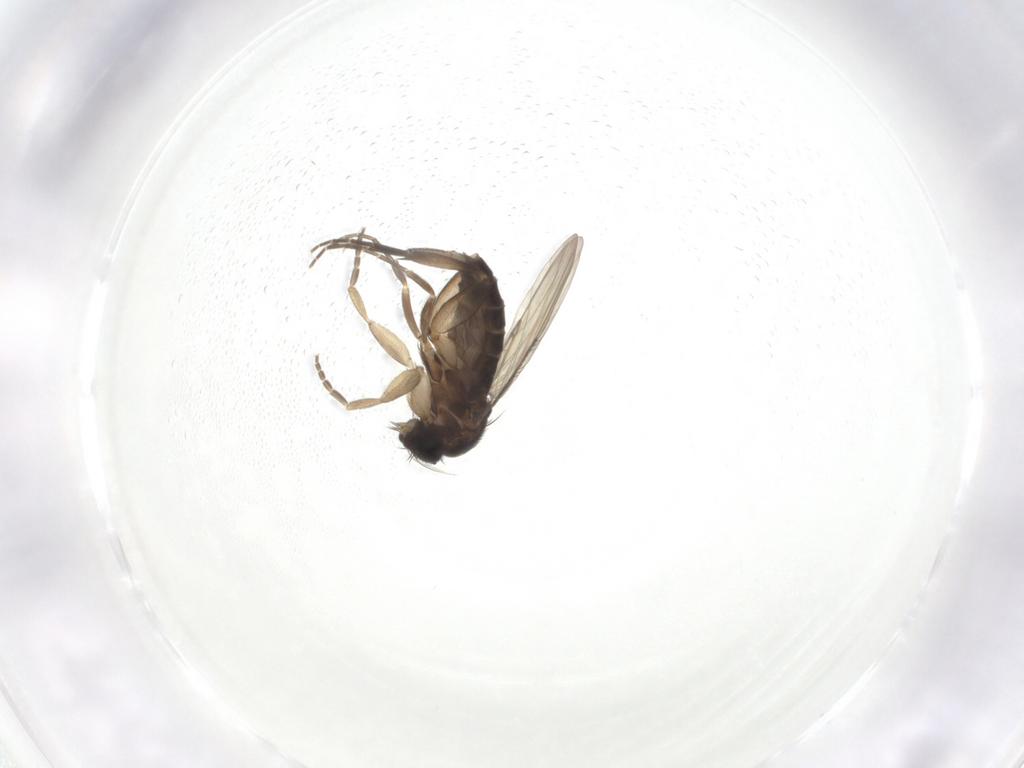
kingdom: Animalia
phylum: Arthropoda
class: Insecta
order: Diptera
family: Phoridae
